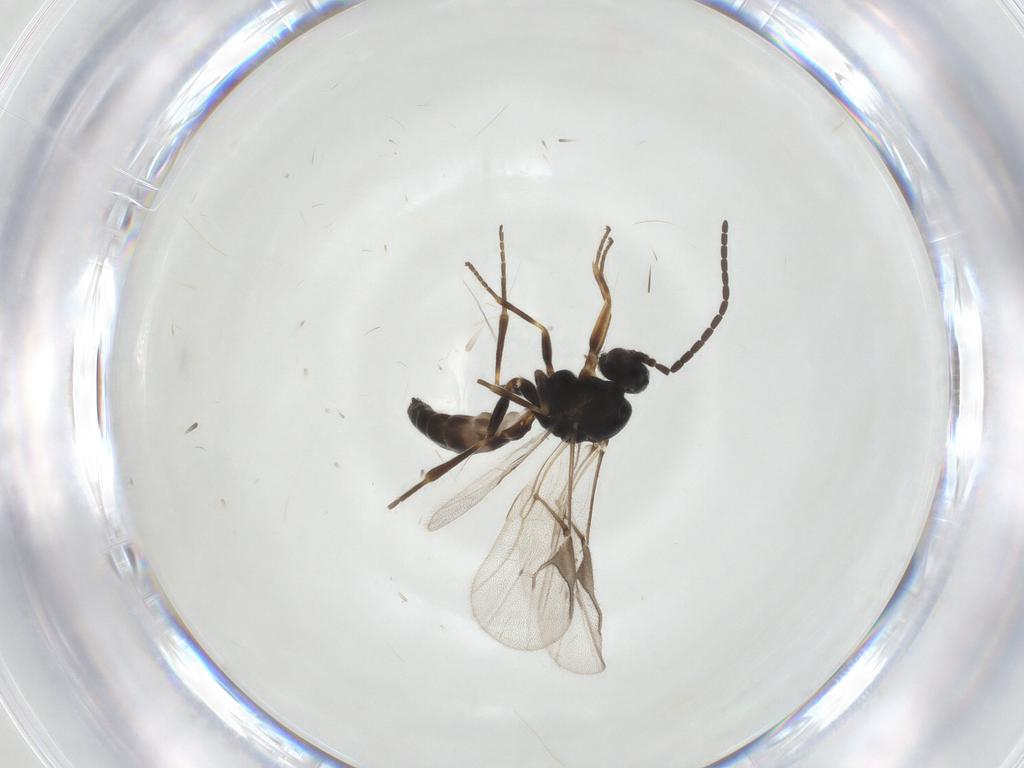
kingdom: Animalia
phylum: Arthropoda
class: Insecta
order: Hymenoptera
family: Braconidae
